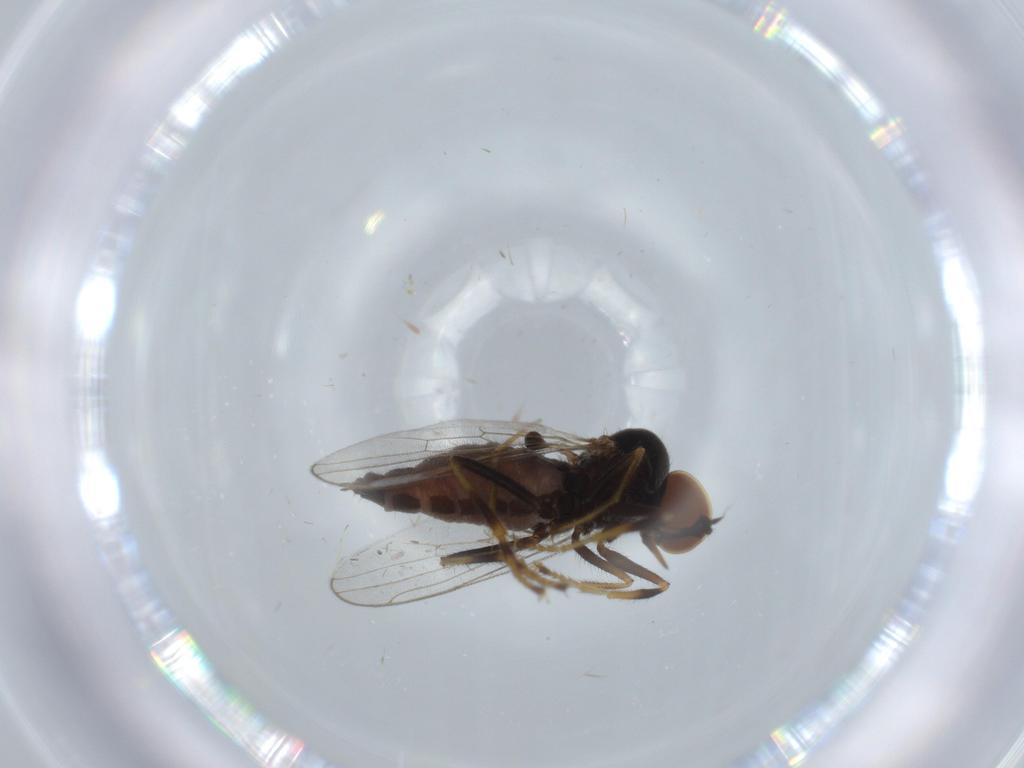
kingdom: Animalia
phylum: Arthropoda
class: Insecta
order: Diptera
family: Hybotidae
